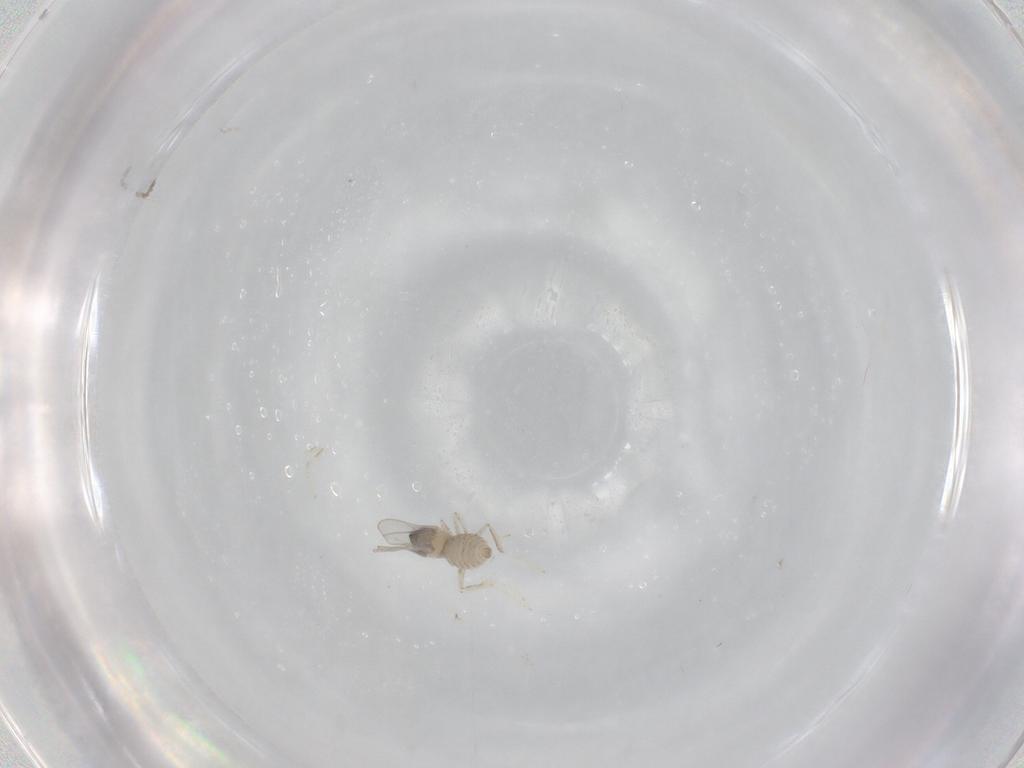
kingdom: Animalia
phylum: Arthropoda
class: Insecta
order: Diptera
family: Cecidomyiidae
